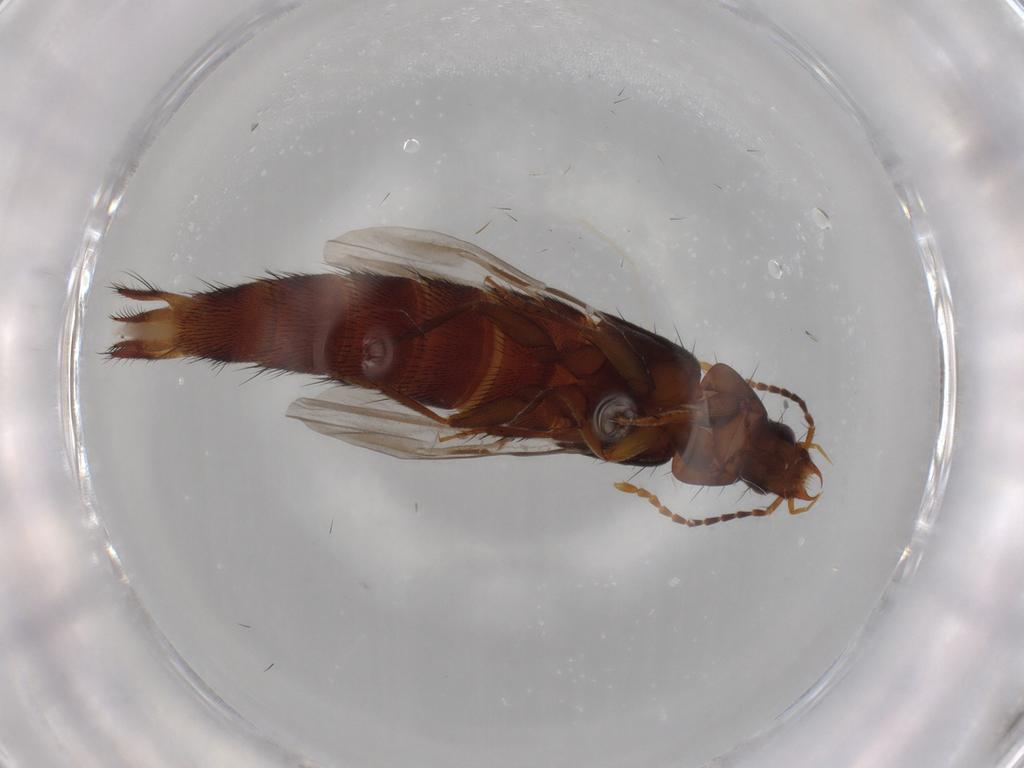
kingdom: Animalia
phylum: Arthropoda
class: Insecta
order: Coleoptera
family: Staphylinidae
